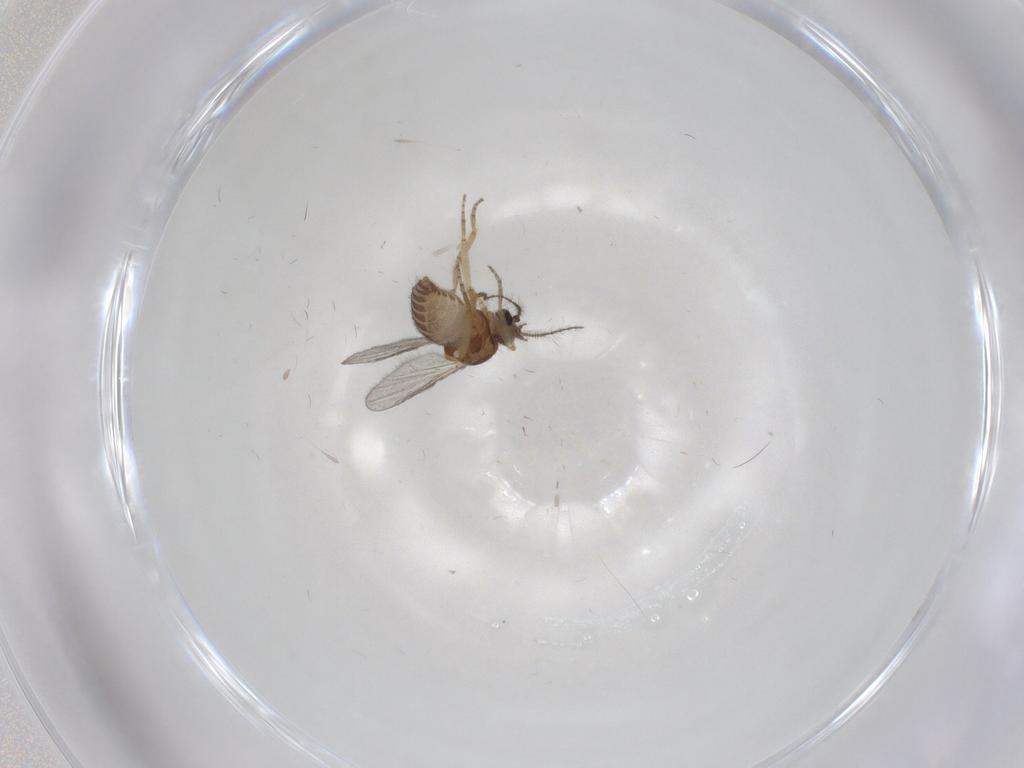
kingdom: Animalia
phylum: Arthropoda
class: Insecta
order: Diptera
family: Ceratopogonidae
